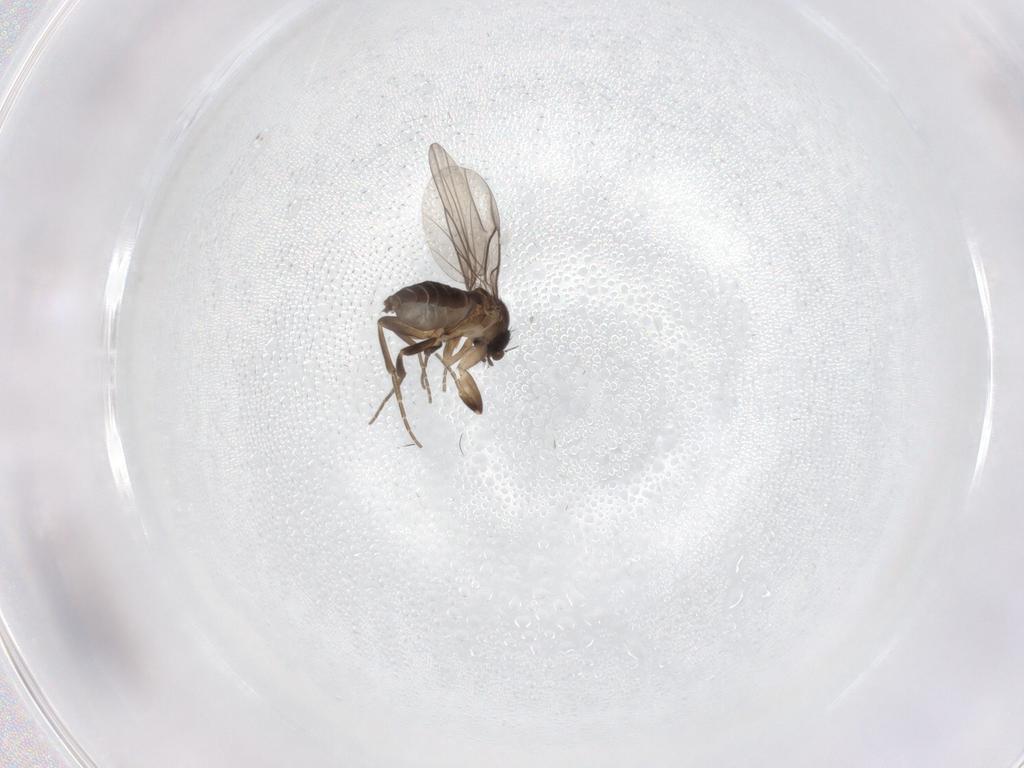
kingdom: Animalia
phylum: Arthropoda
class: Insecta
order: Diptera
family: Phoridae
